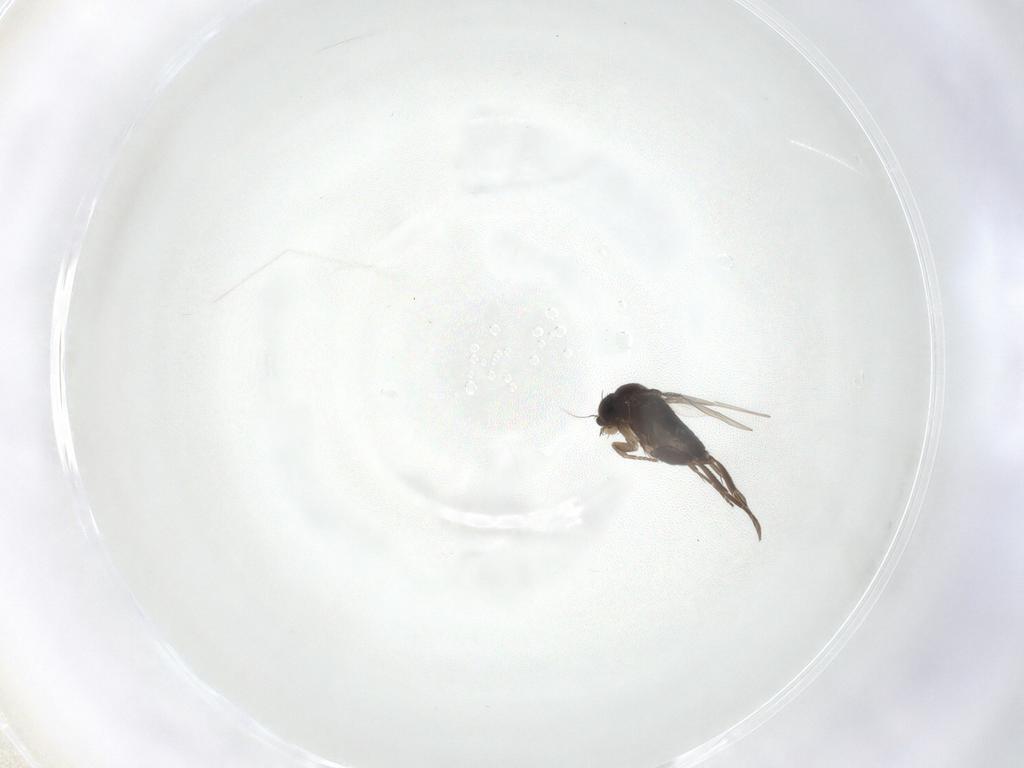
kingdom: Animalia
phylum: Arthropoda
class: Insecta
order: Diptera
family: Phoridae
